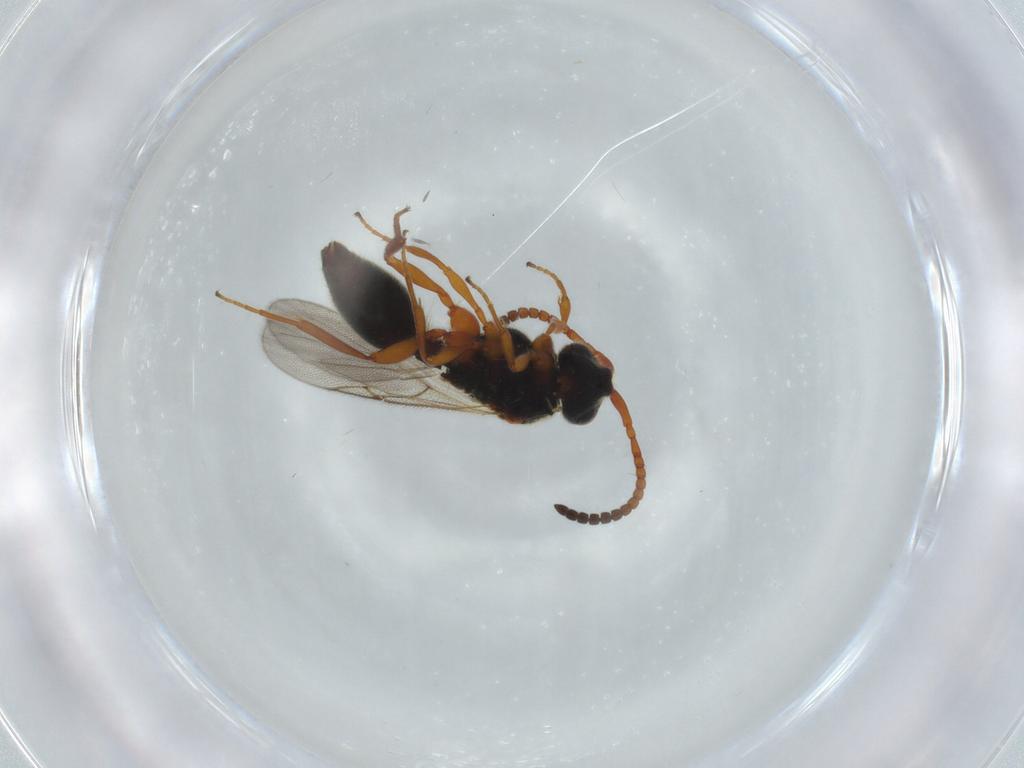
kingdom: Animalia
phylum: Arthropoda
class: Insecta
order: Hymenoptera
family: Diapriidae
